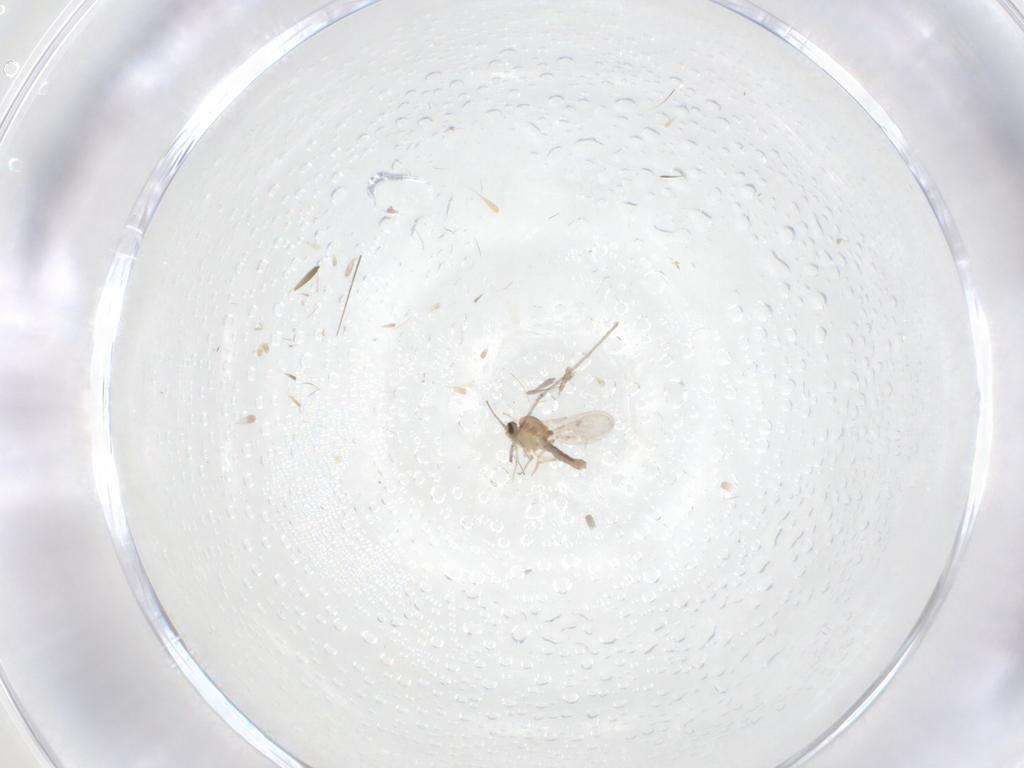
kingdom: Animalia
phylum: Arthropoda
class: Insecta
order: Diptera
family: Ceratopogonidae
